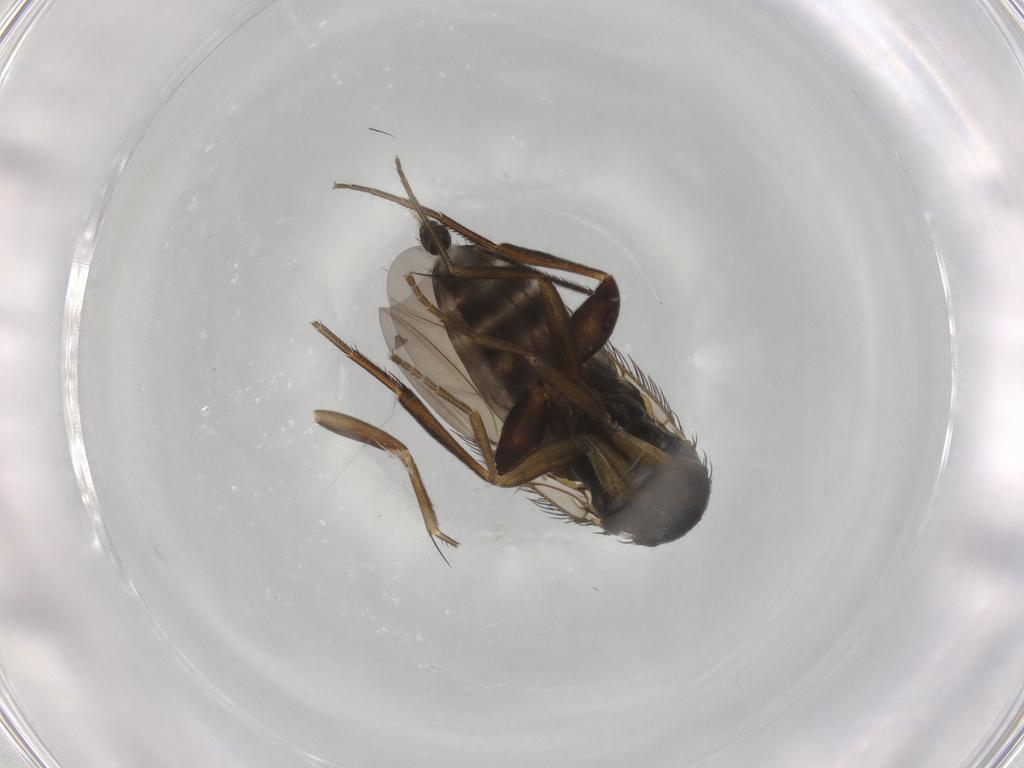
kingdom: Animalia
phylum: Arthropoda
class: Insecta
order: Diptera
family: Phoridae
